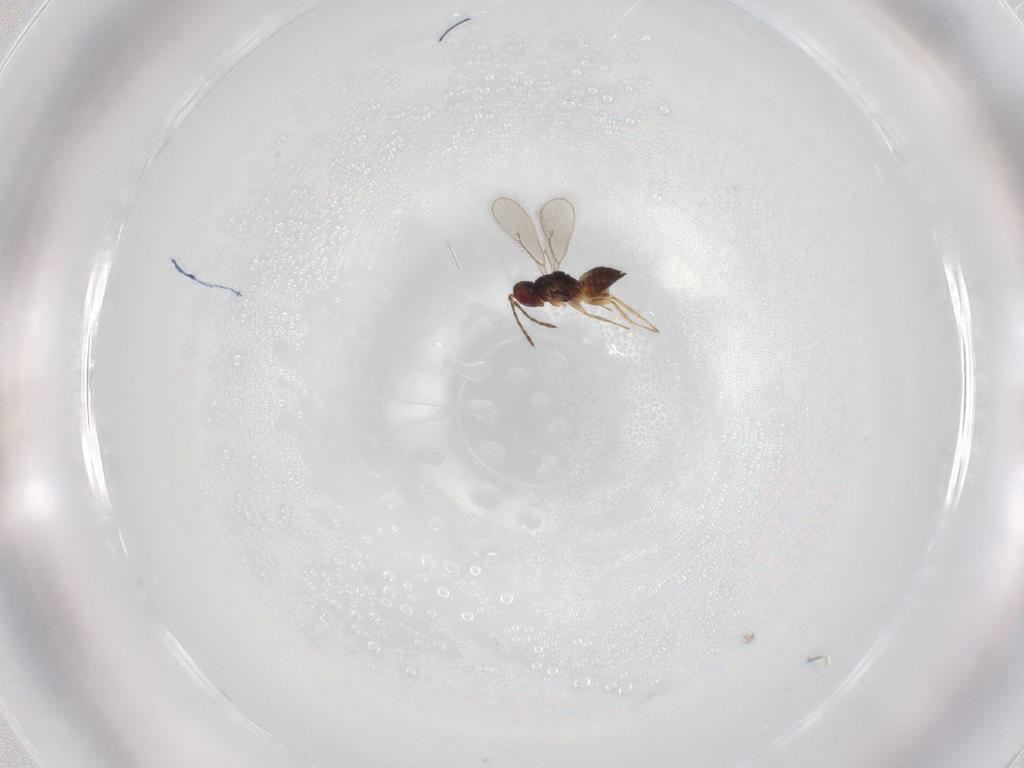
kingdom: Animalia
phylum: Arthropoda
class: Insecta
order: Hymenoptera
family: Eulophidae
